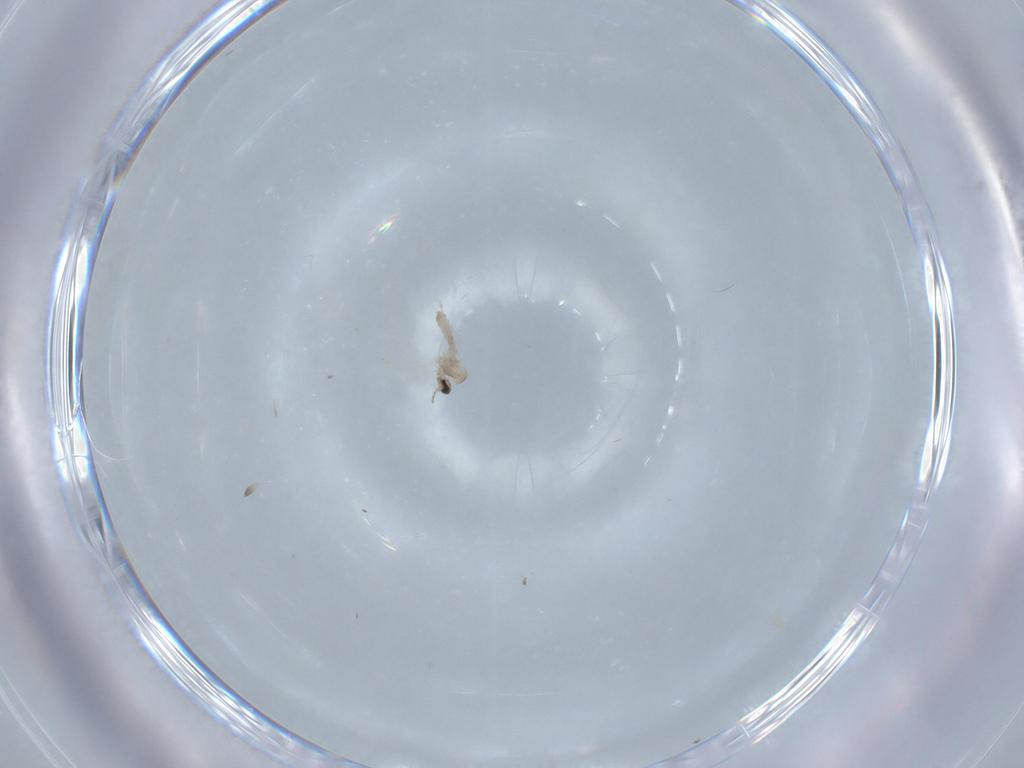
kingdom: Animalia
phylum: Arthropoda
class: Insecta
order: Diptera
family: Cecidomyiidae
